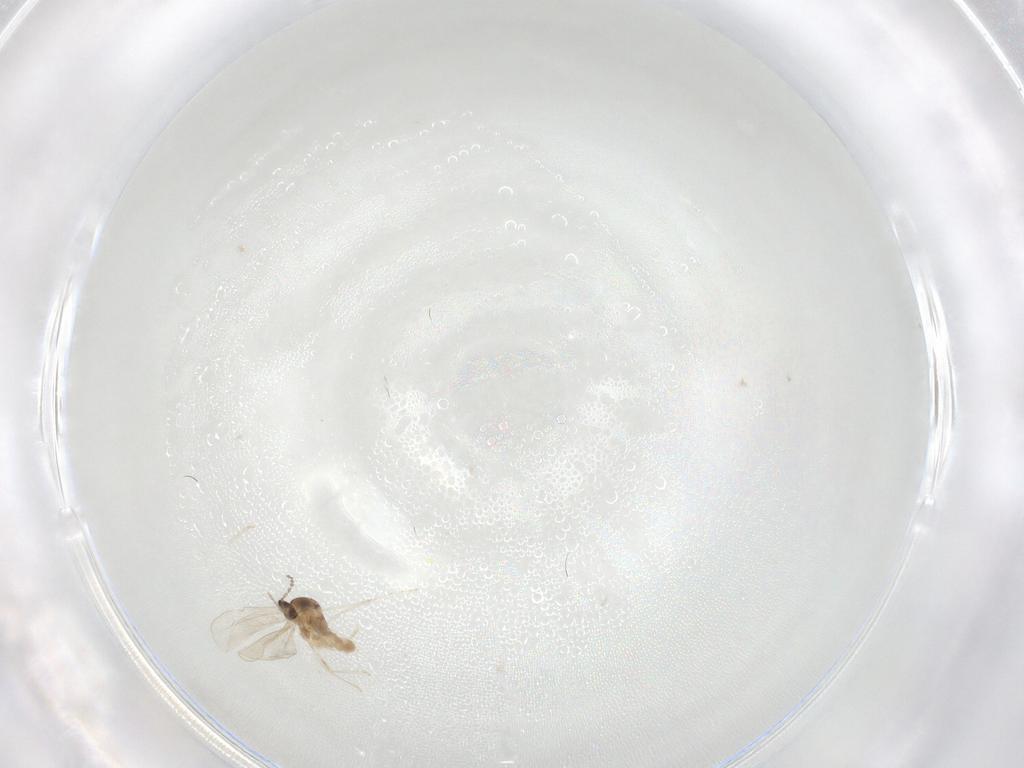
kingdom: Animalia
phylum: Arthropoda
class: Insecta
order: Diptera
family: Cecidomyiidae
